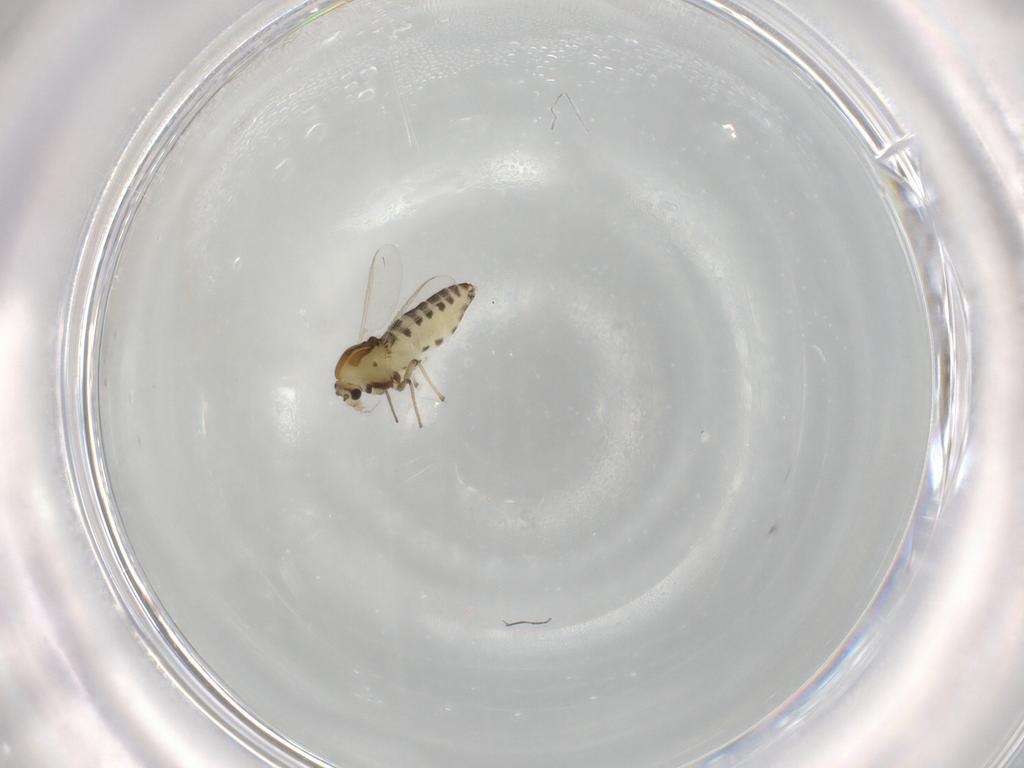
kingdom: Animalia
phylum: Arthropoda
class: Insecta
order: Diptera
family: Chironomidae
